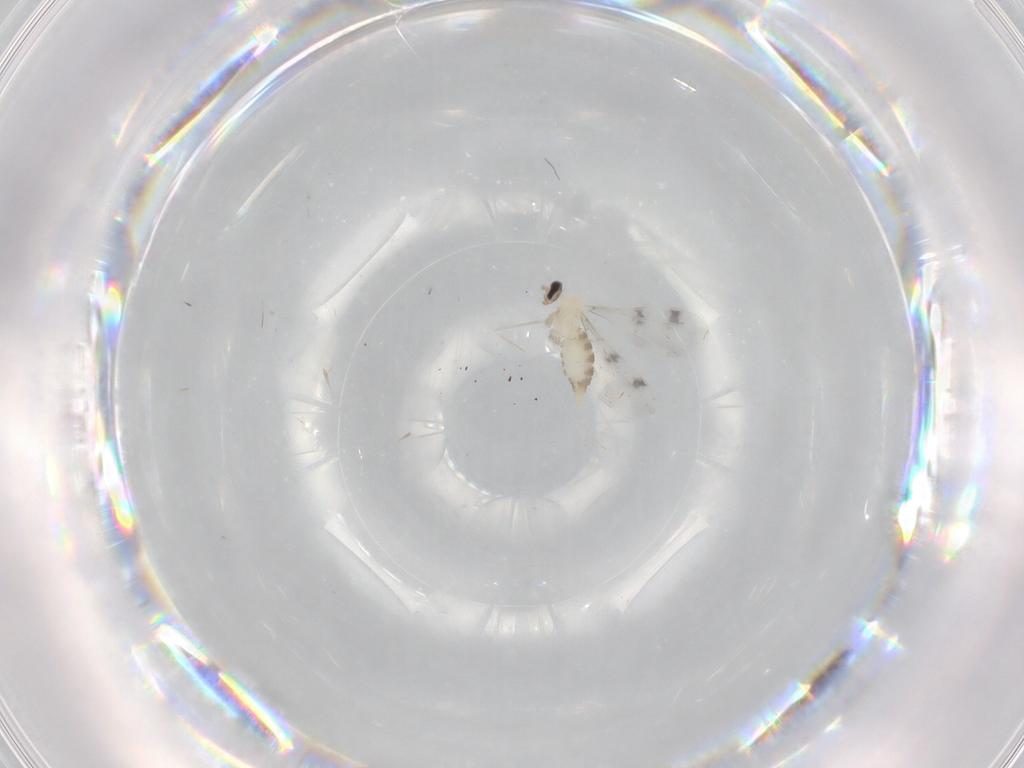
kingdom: Animalia
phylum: Arthropoda
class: Insecta
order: Diptera
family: Cecidomyiidae
